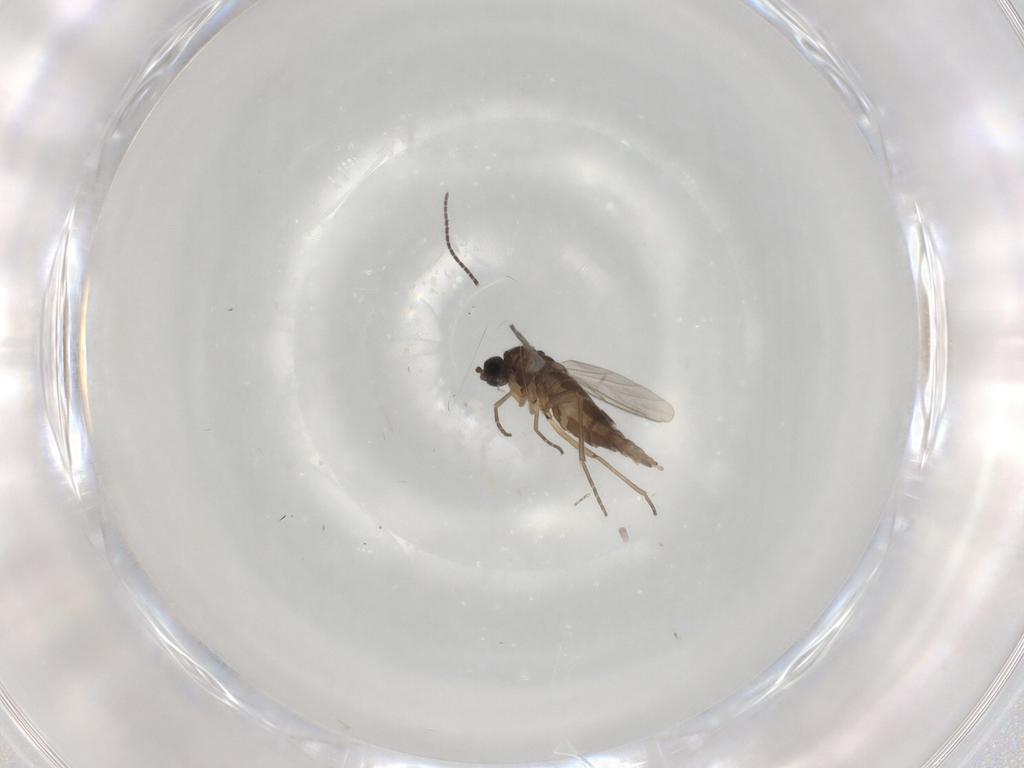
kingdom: Animalia
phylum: Arthropoda
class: Insecta
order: Diptera
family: Sciaridae
